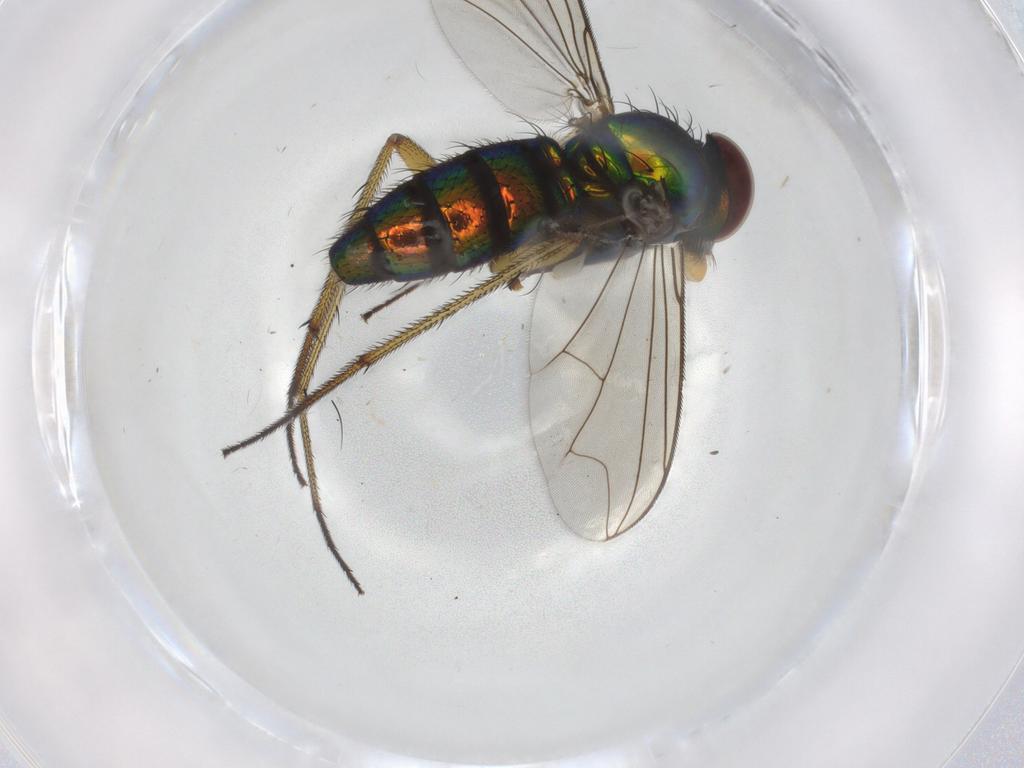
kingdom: Animalia
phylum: Arthropoda
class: Insecta
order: Diptera
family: Dolichopodidae
